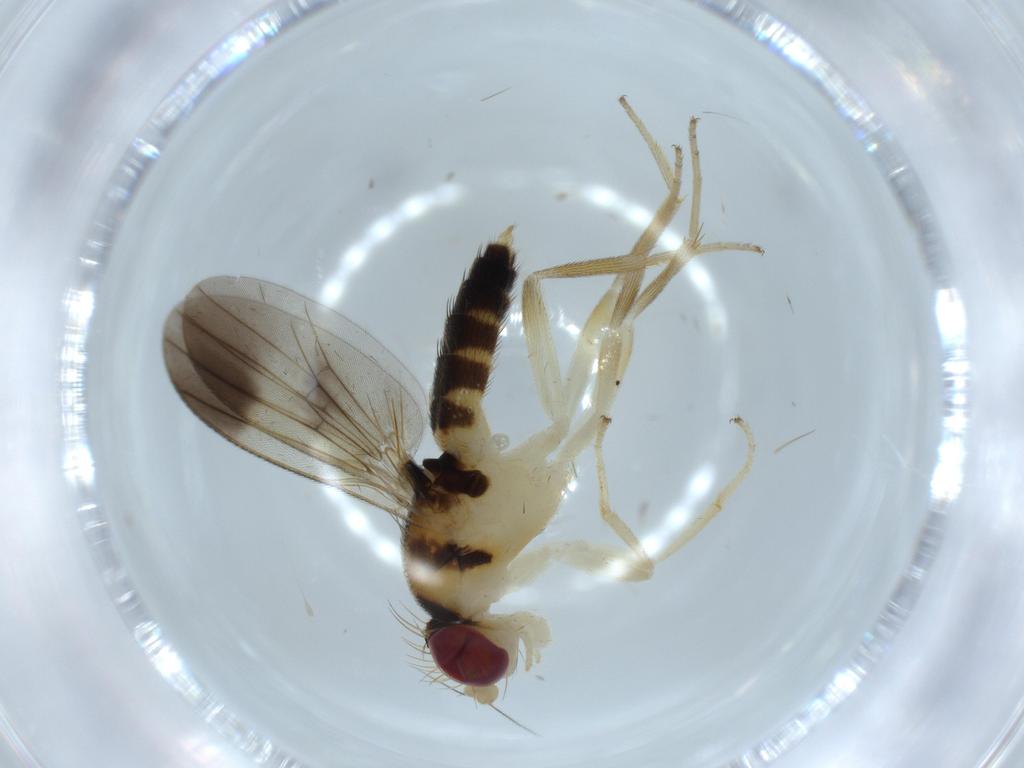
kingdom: Animalia
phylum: Arthropoda
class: Insecta
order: Diptera
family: Clusiidae
